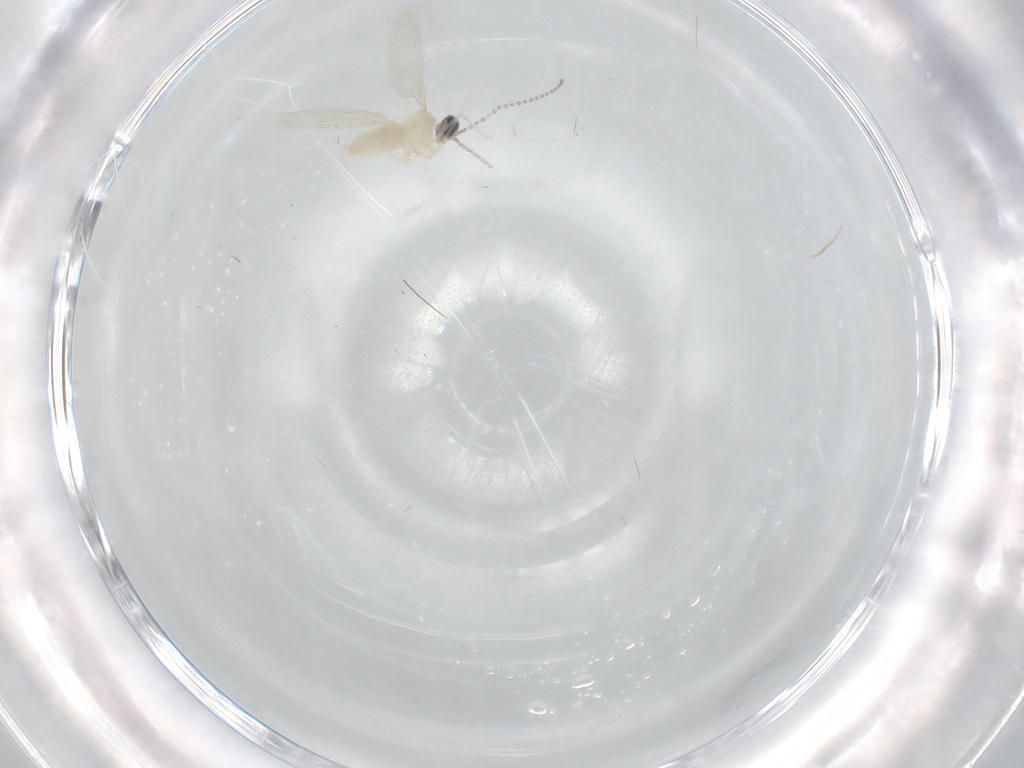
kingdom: Animalia
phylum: Arthropoda
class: Insecta
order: Diptera
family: Cecidomyiidae
